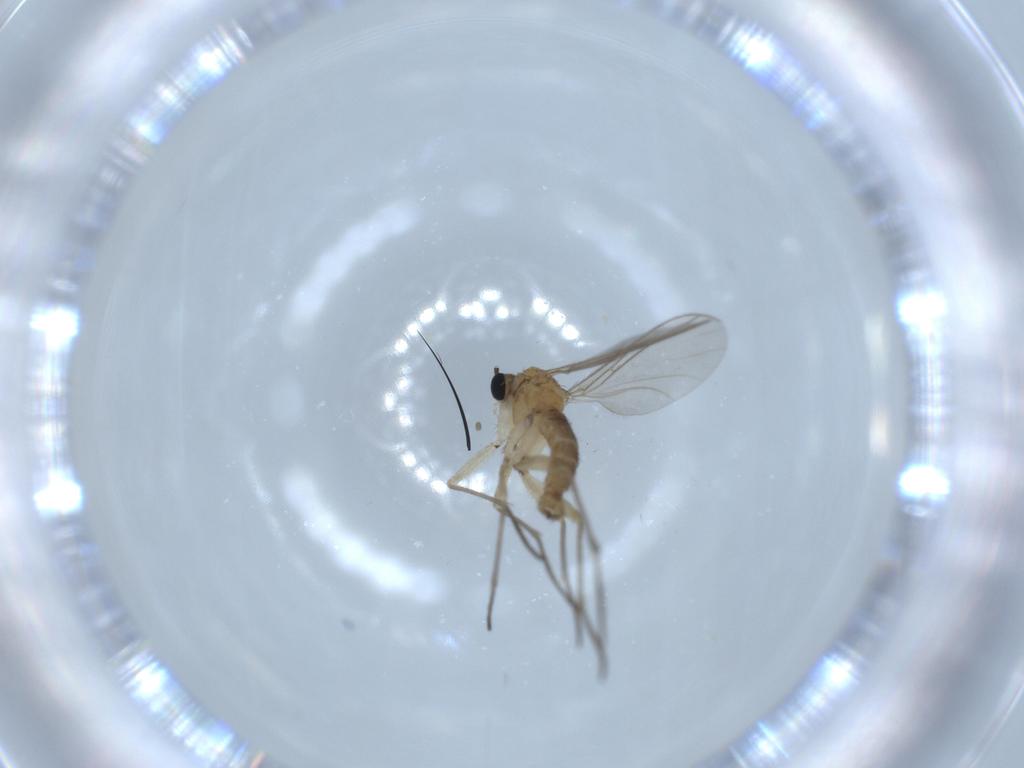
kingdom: Animalia
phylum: Arthropoda
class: Insecta
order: Diptera
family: Sciaridae
